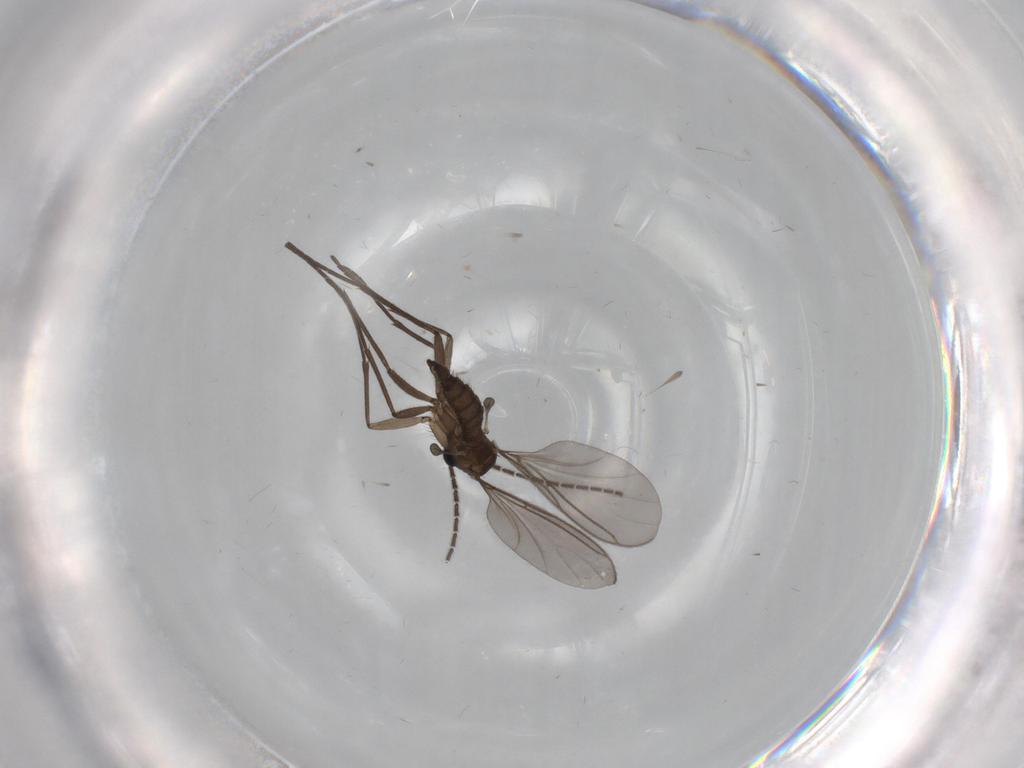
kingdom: Animalia
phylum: Arthropoda
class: Insecta
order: Diptera
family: Sciaridae
